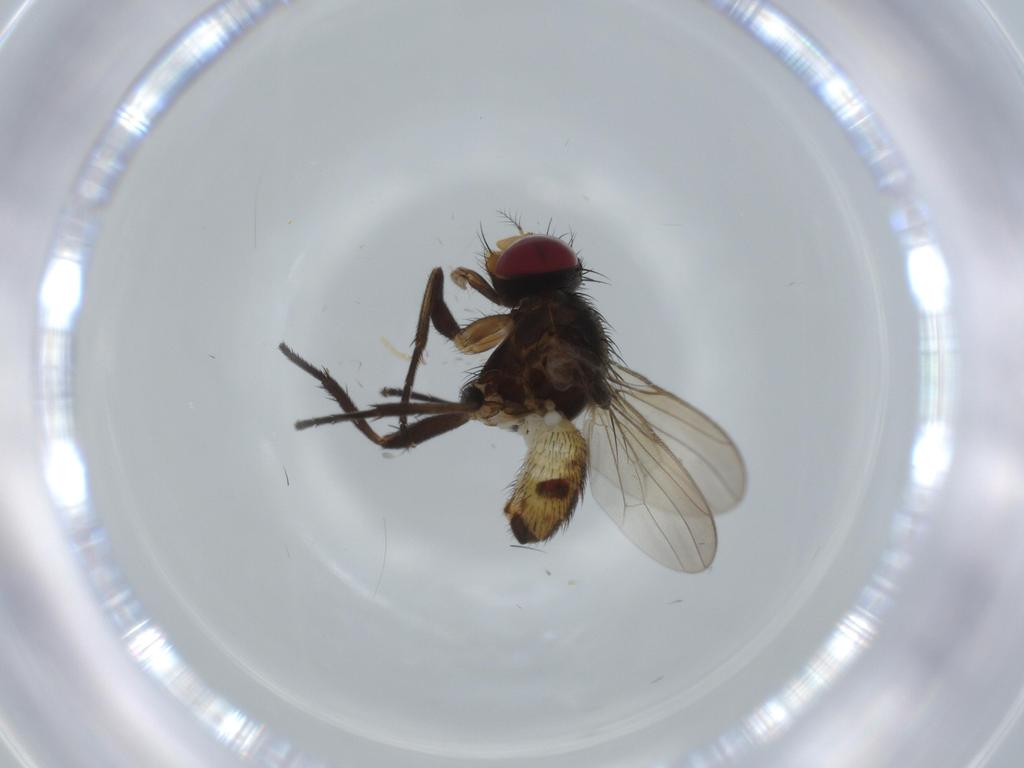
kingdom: Animalia
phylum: Arthropoda
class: Insecta
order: Diptera
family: Anthomyiidae
